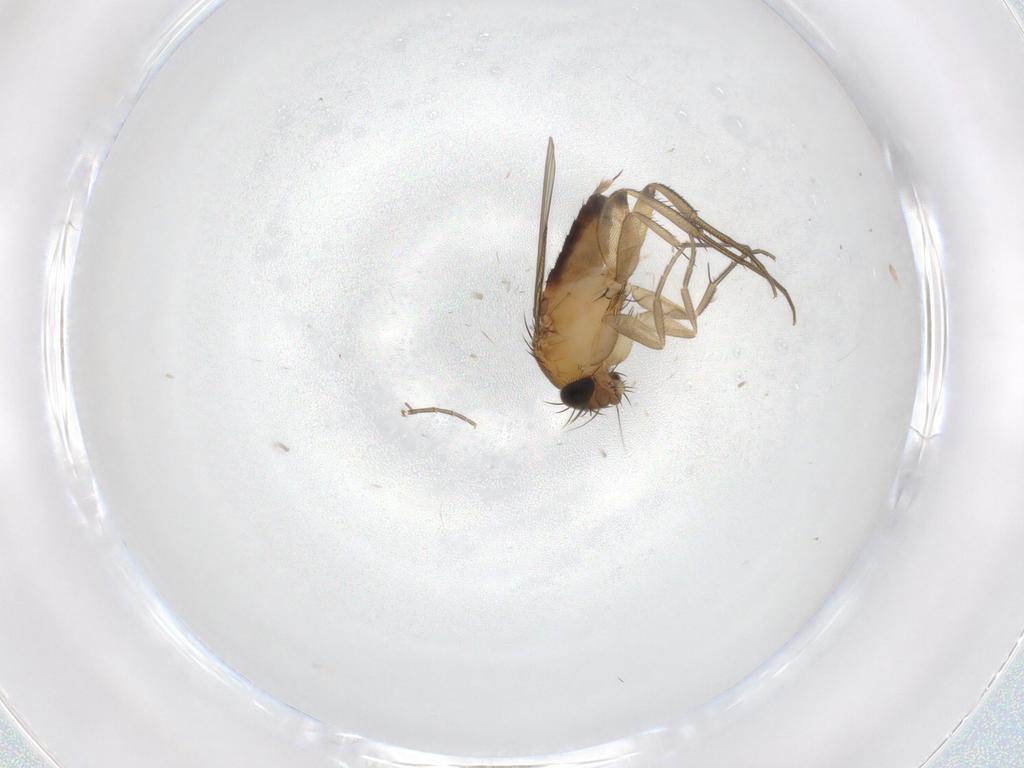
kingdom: Animalia
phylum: Arthropoda
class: Insecta
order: Diptera
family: Phoridae
